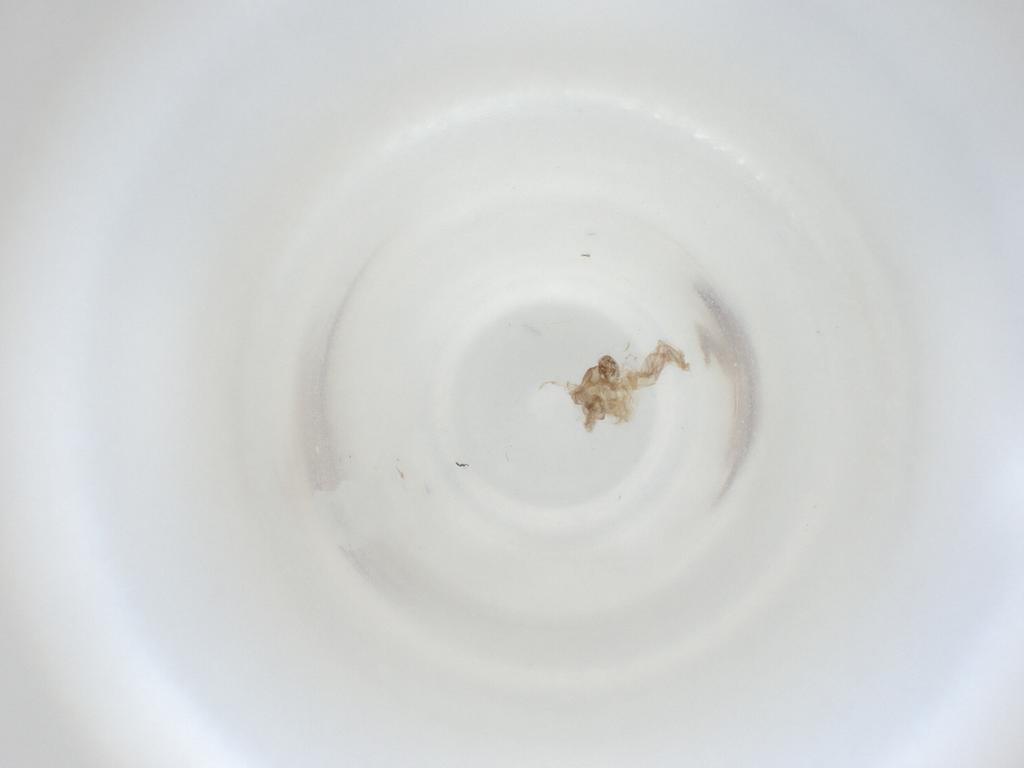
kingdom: Animalia
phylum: Arthropoda
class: Insecta
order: Diptera
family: Cecidomyiidae
